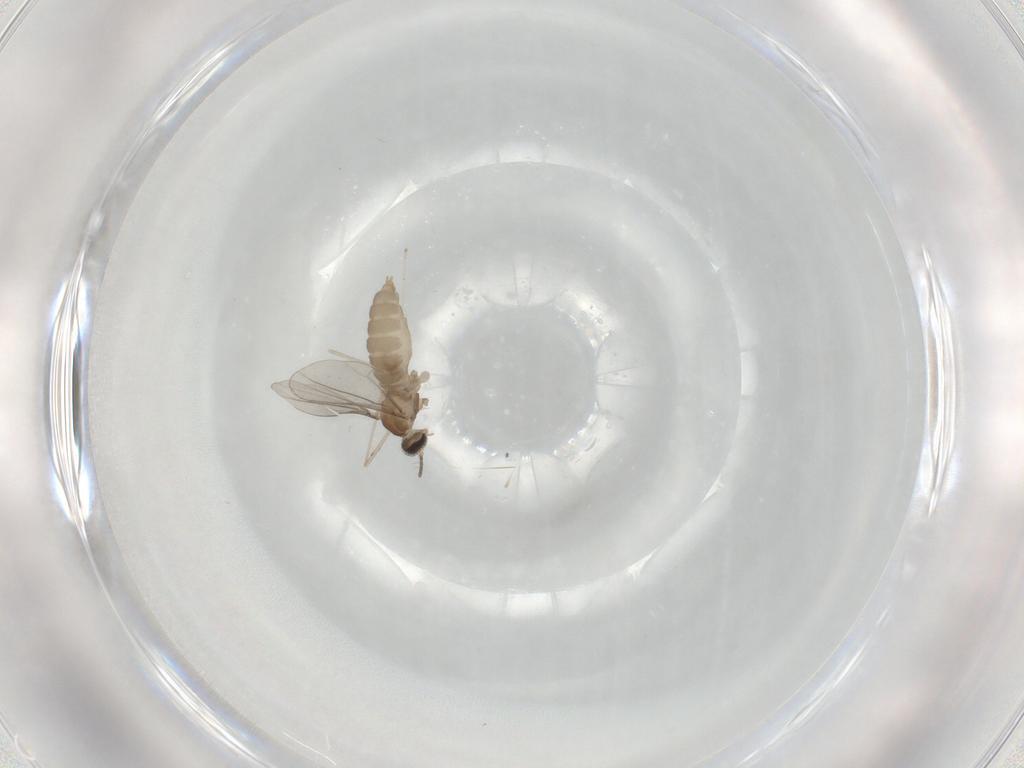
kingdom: Animalia
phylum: Arthropoda
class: Insecta
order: Diptera
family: Cecidomyiidae
